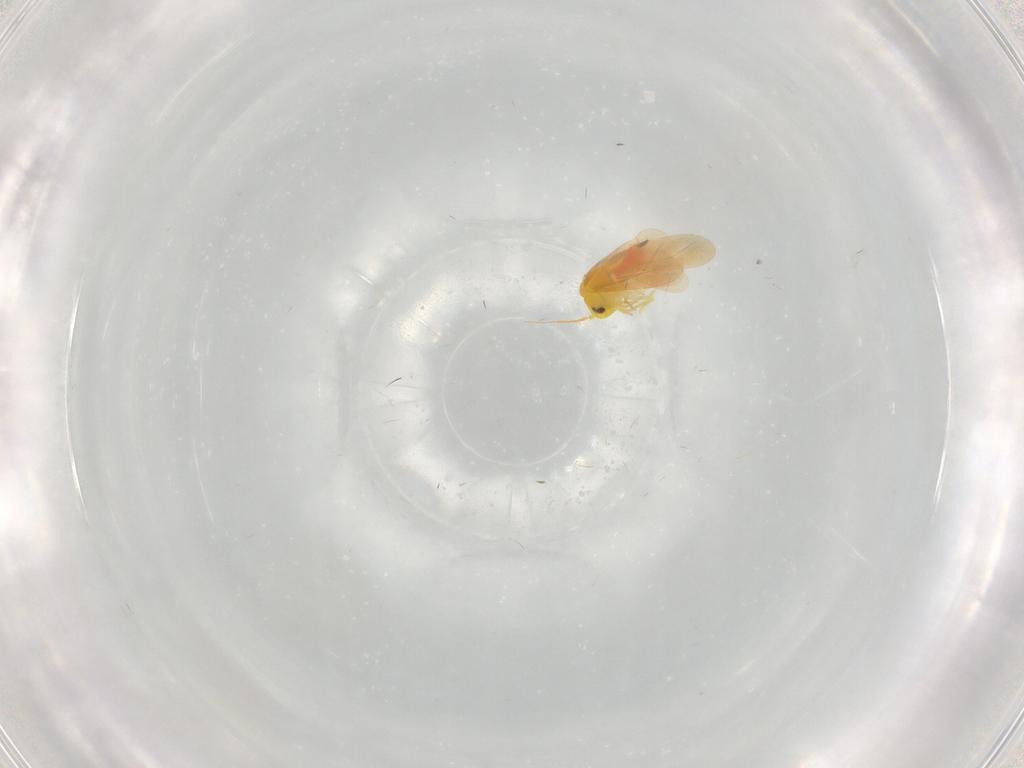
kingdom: Animalia
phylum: Arthropoda
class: Insecta
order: Hemiptera
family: Aleyrodidae
